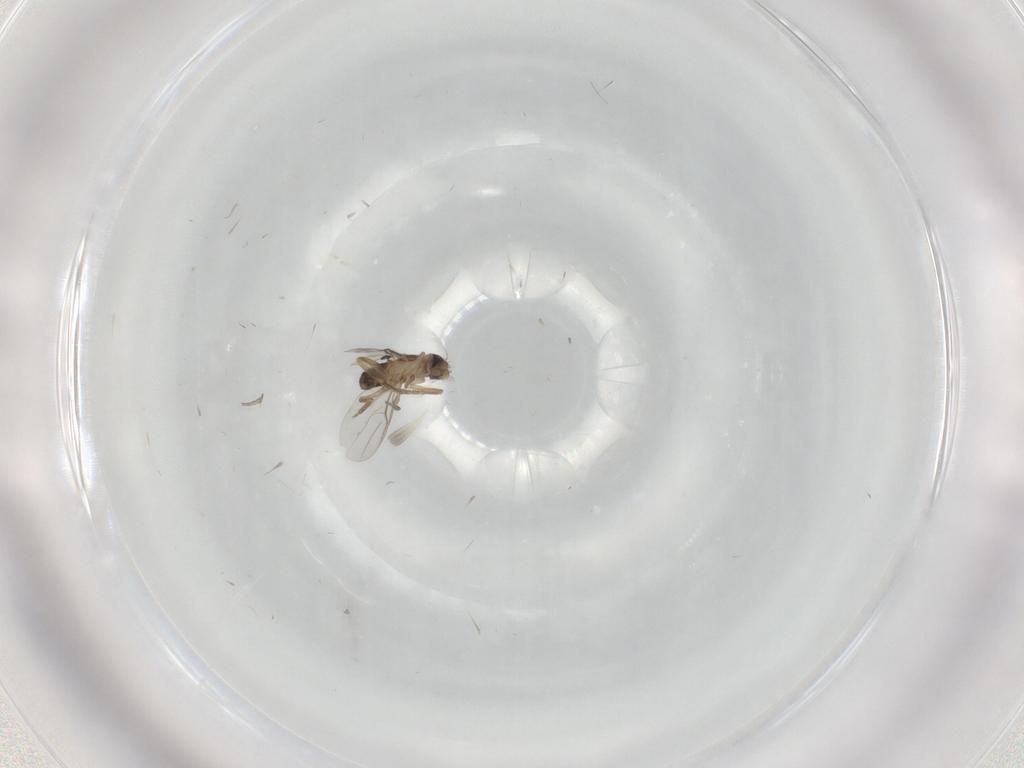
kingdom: Animalia
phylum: Arthropoda
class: Insecta
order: Diptera
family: Phoridae
